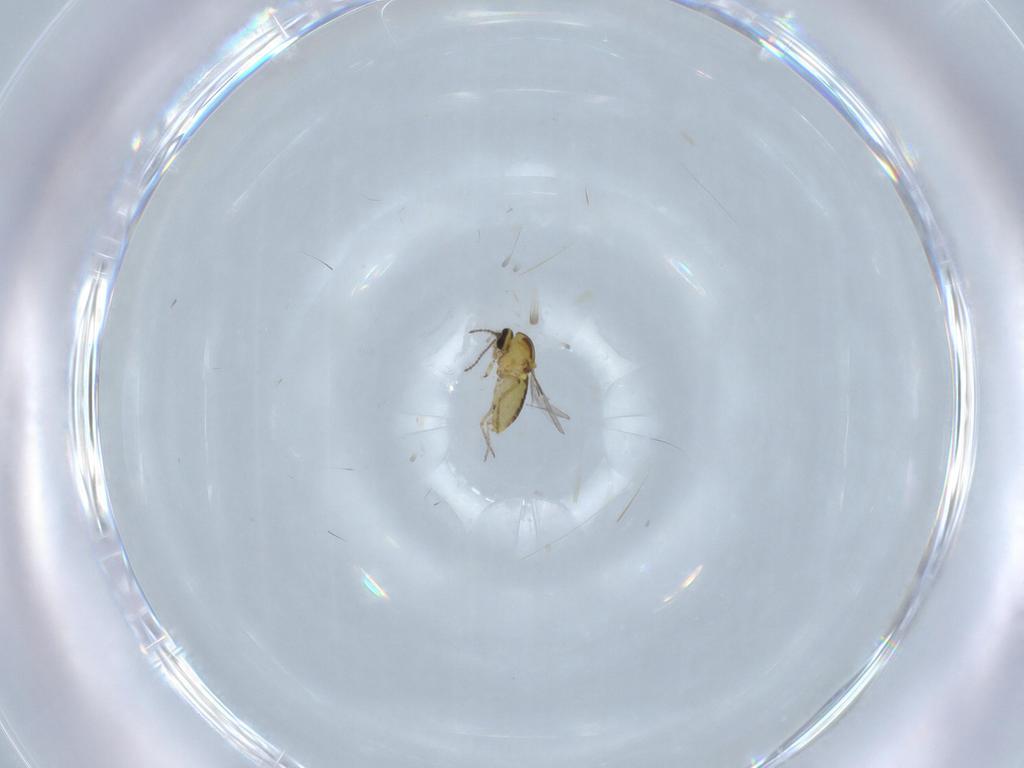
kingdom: Animalia
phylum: Arthropoda
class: Insecta
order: Diptera
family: Ceratopogonidae
